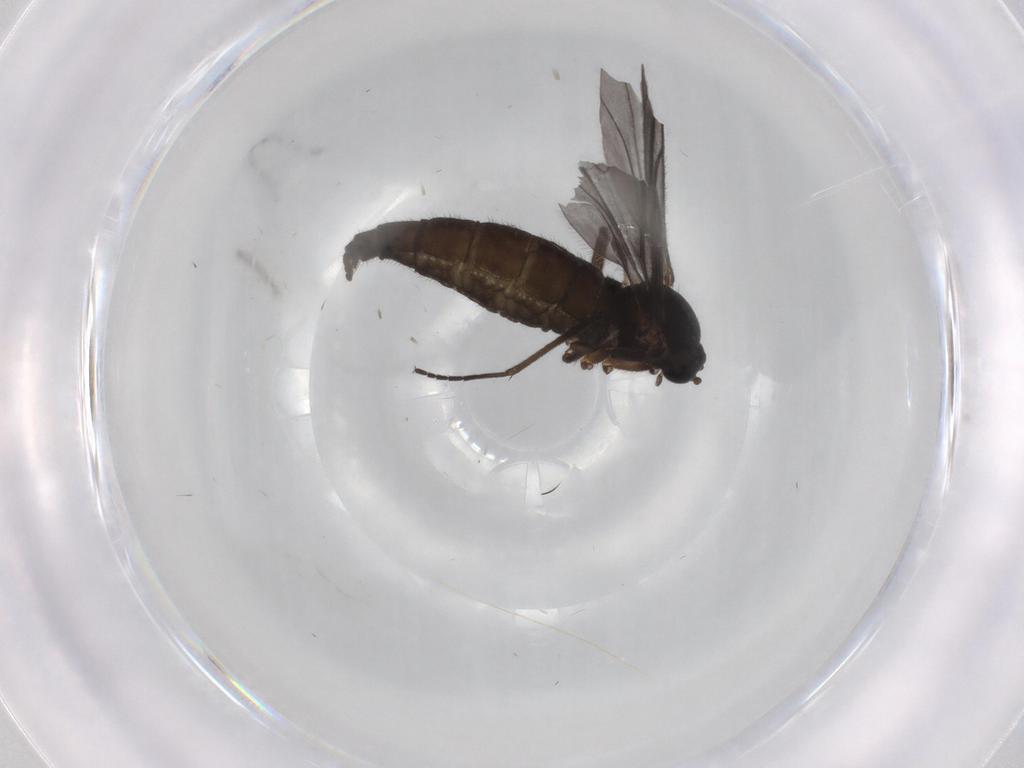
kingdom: Animalia
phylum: Arthropoda
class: Insecta
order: Diptera
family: Sciaridae
